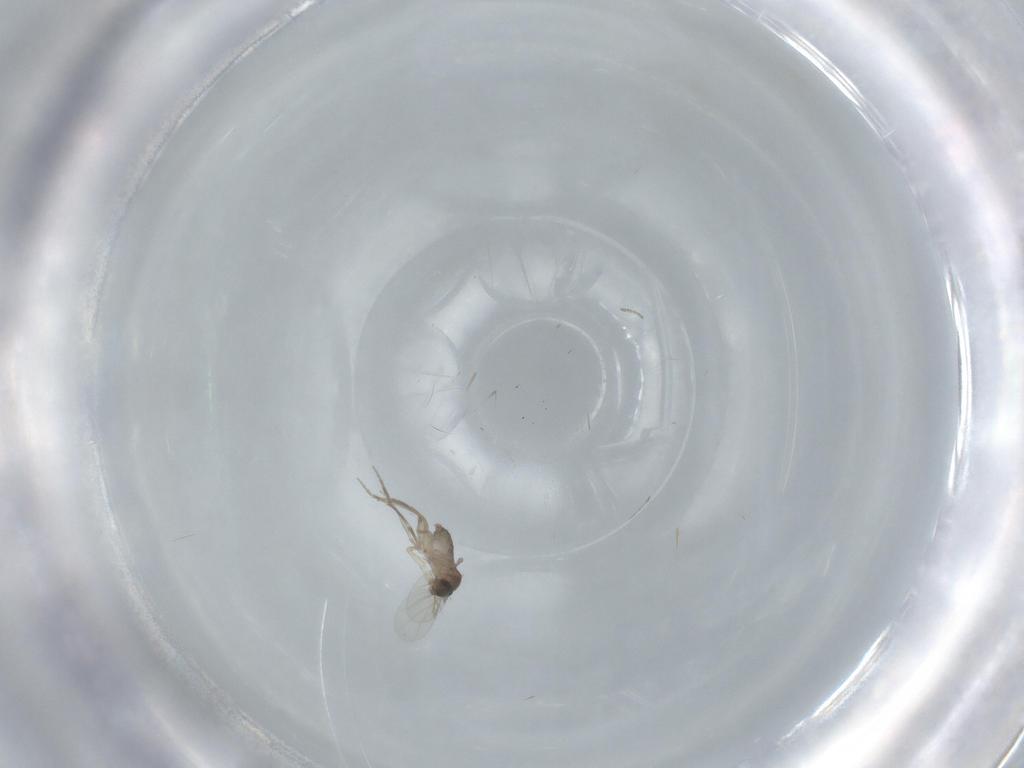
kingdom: Animalia
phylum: Arthropoda
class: Insecta
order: Diptera
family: Phoridae
